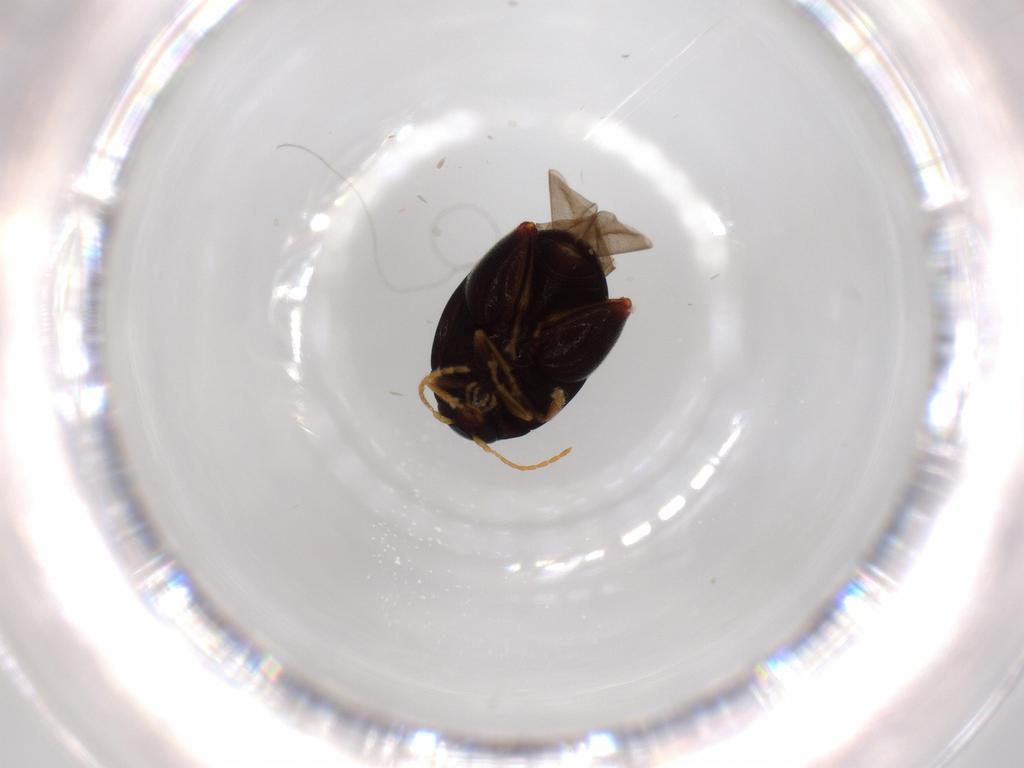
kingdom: Animalia
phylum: Arthropoda
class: Insecta
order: Coleoptera
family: Chrysomelidae
